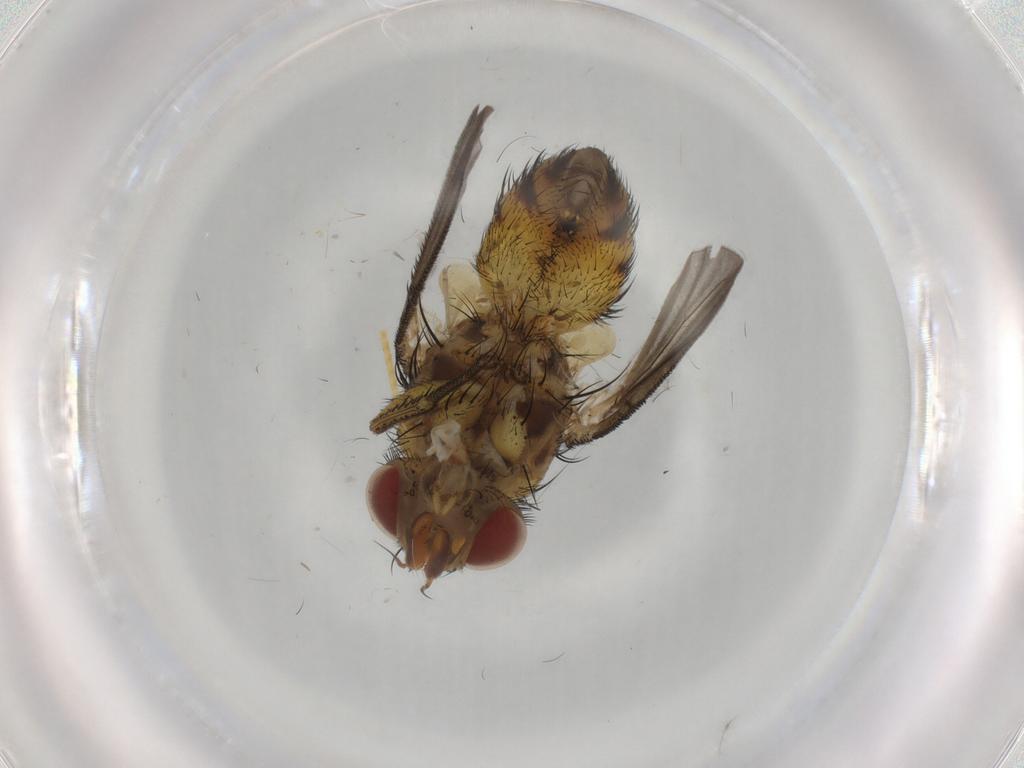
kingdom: Animalia
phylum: Arthropoda
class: Insecta
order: Diptera
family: Tachinidae
